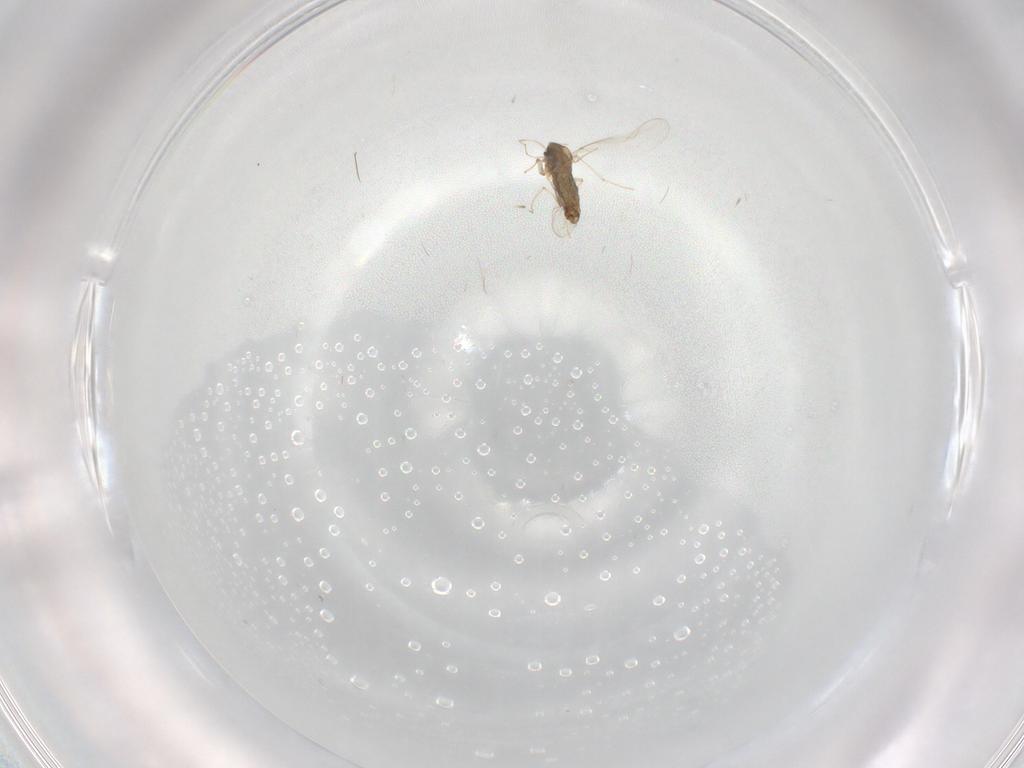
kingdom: Animalia
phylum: Arthropoda
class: Insecta
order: Diptera
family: Chironomidae
